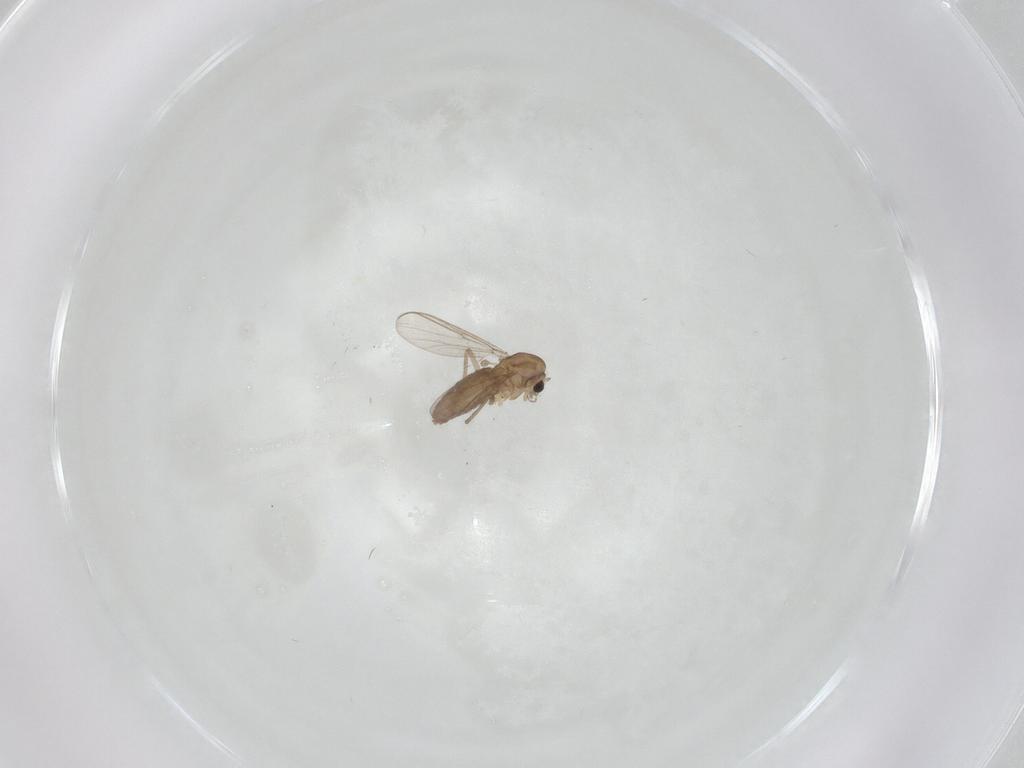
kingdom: Animalia
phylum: Arthropoda
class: Insecta
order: Diptera
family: Chironomidae
